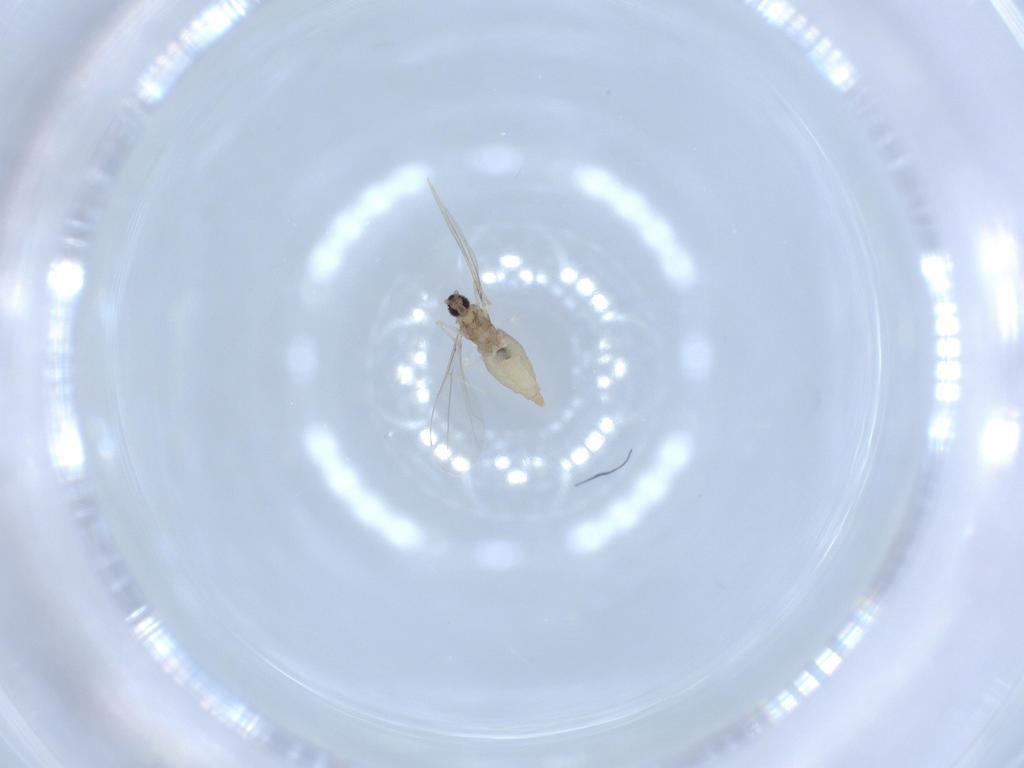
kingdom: Animalia
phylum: Arthropoda
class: Insecta
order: Diptera
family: Cecidomyiidae
